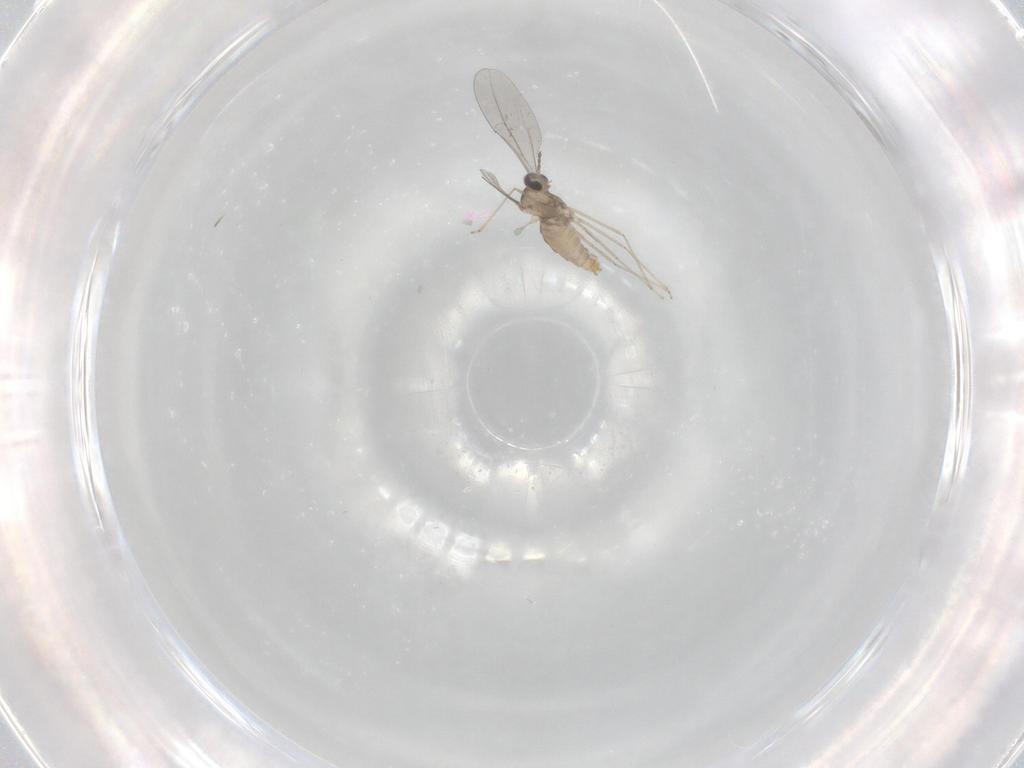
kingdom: Animalia
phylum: Arthropoda
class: Insecta
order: Diptera
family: Cecidomyiidae
